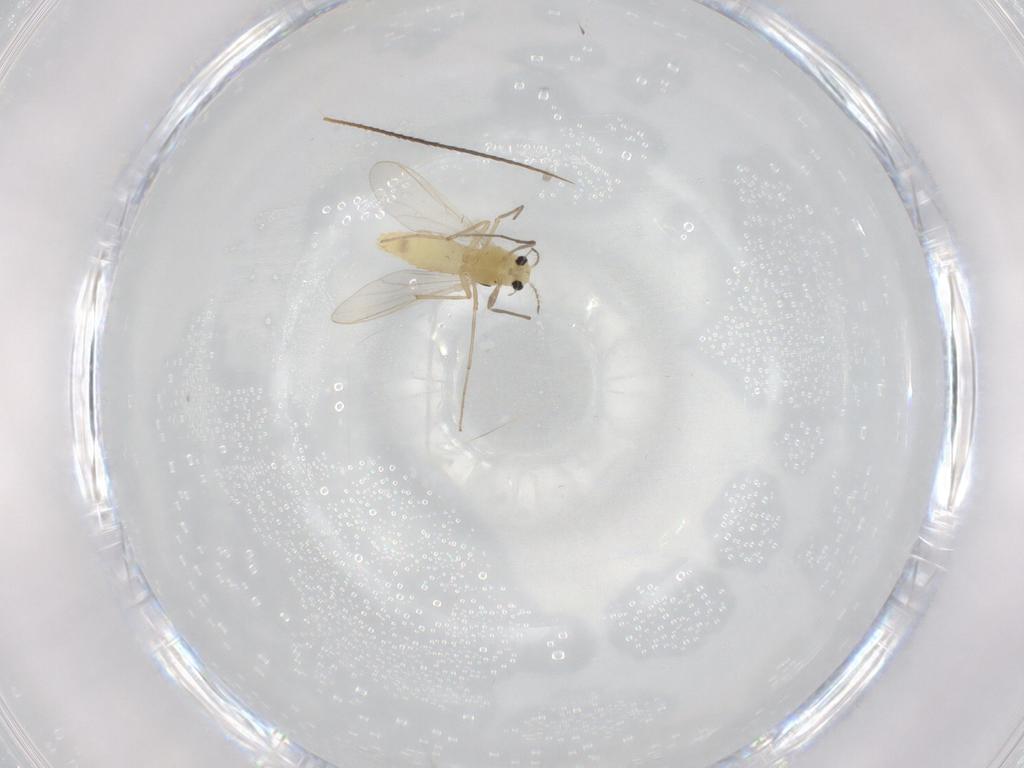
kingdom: Animalia
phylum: Arthropoda
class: Insecta
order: Diptera
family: Chironomidae
